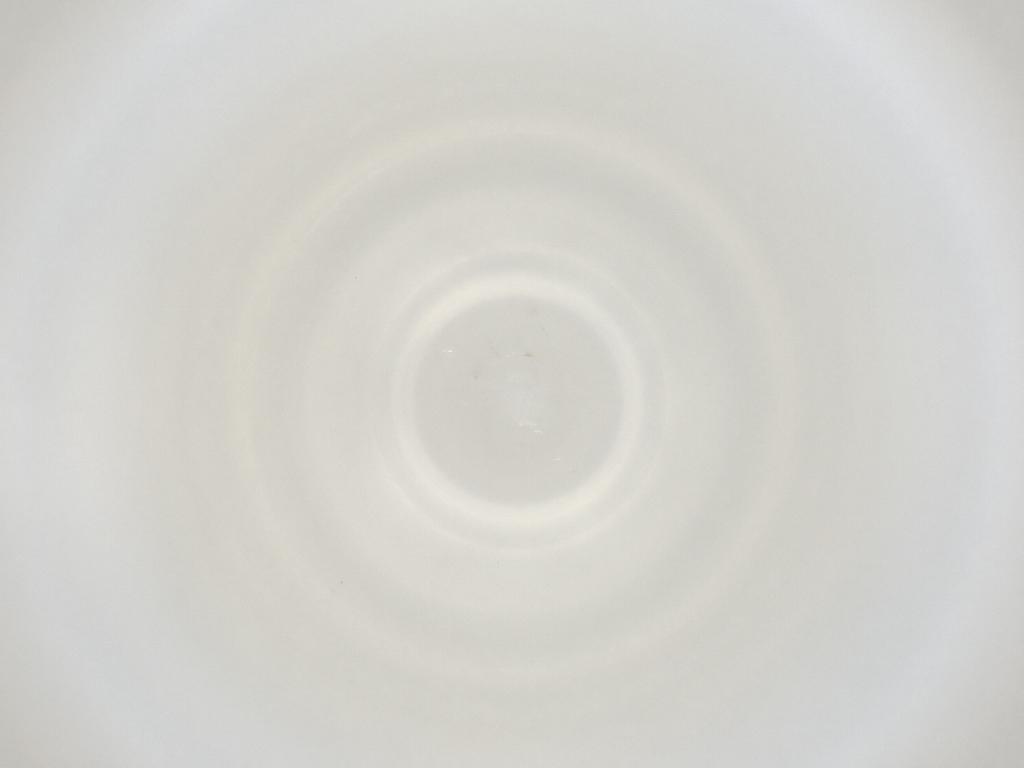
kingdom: Animalia
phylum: Arthropoda
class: Insecta
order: Diptera
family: Cecidomyiidae
